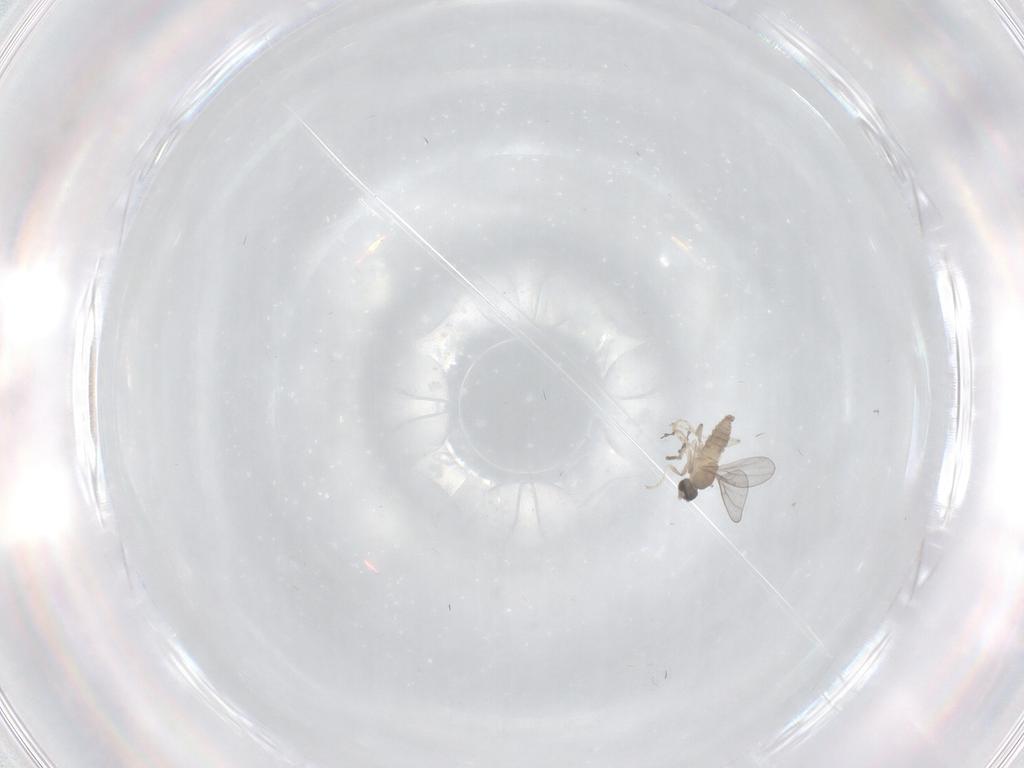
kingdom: Animalia
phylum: Arthropoda
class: Insecta
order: Diptera
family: Cecidomyiidae
